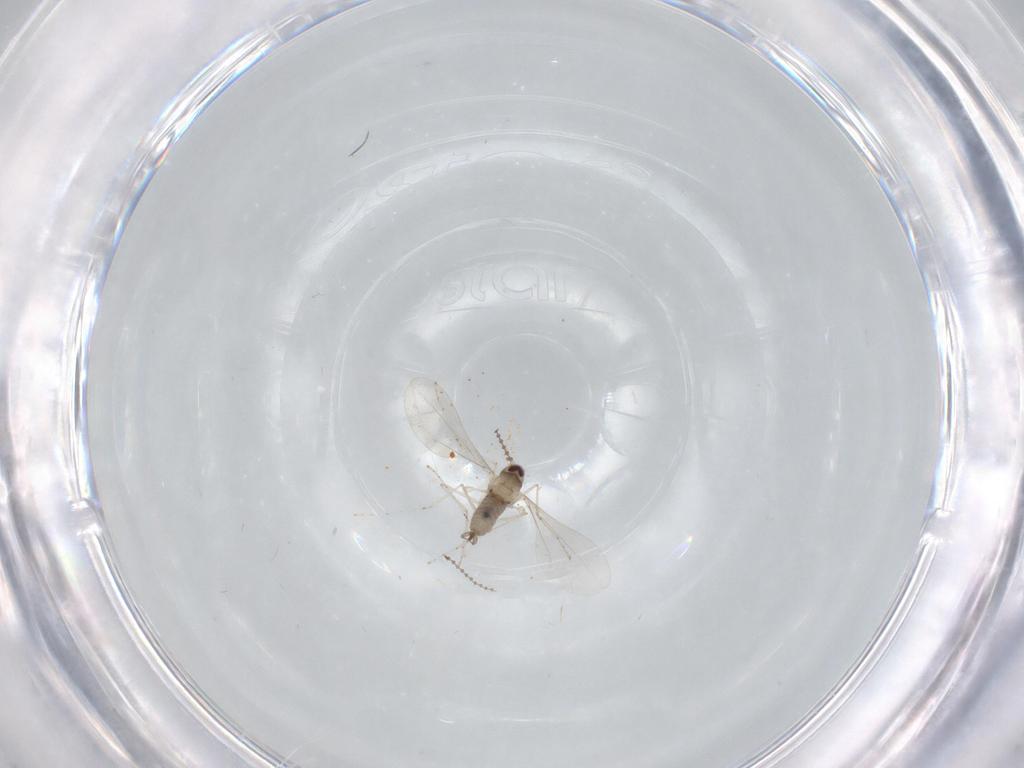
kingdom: Animalia
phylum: Arthropoda
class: Insecta
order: Diptera
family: Cecidomyiidae
